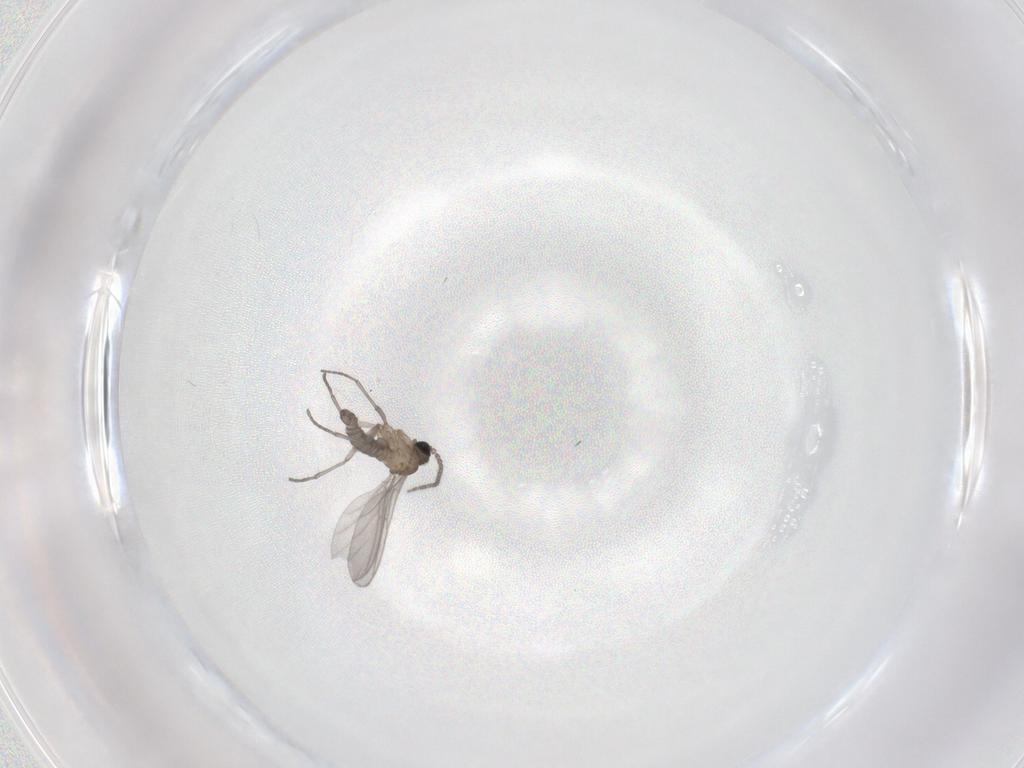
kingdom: Animalia
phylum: Arthropoda
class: Insecta
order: Diptera
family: Sciaridae
